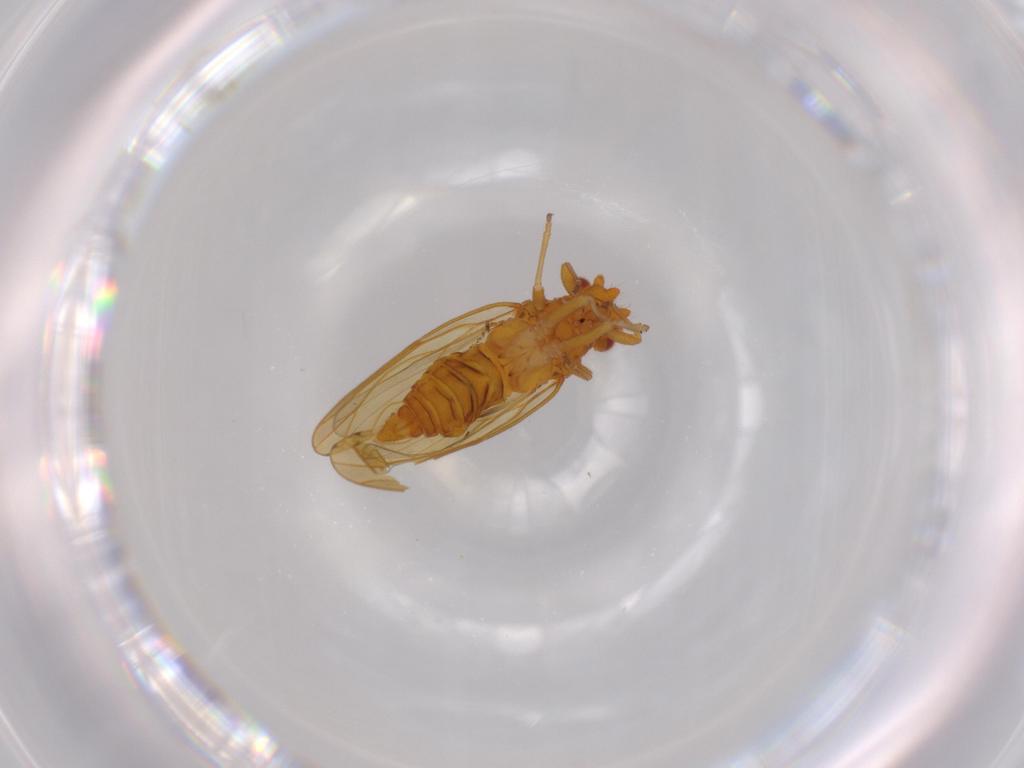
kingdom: Animalia
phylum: Arthropoda
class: Insecta
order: Hemiptera
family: Psylloidea_incertae_sedis
